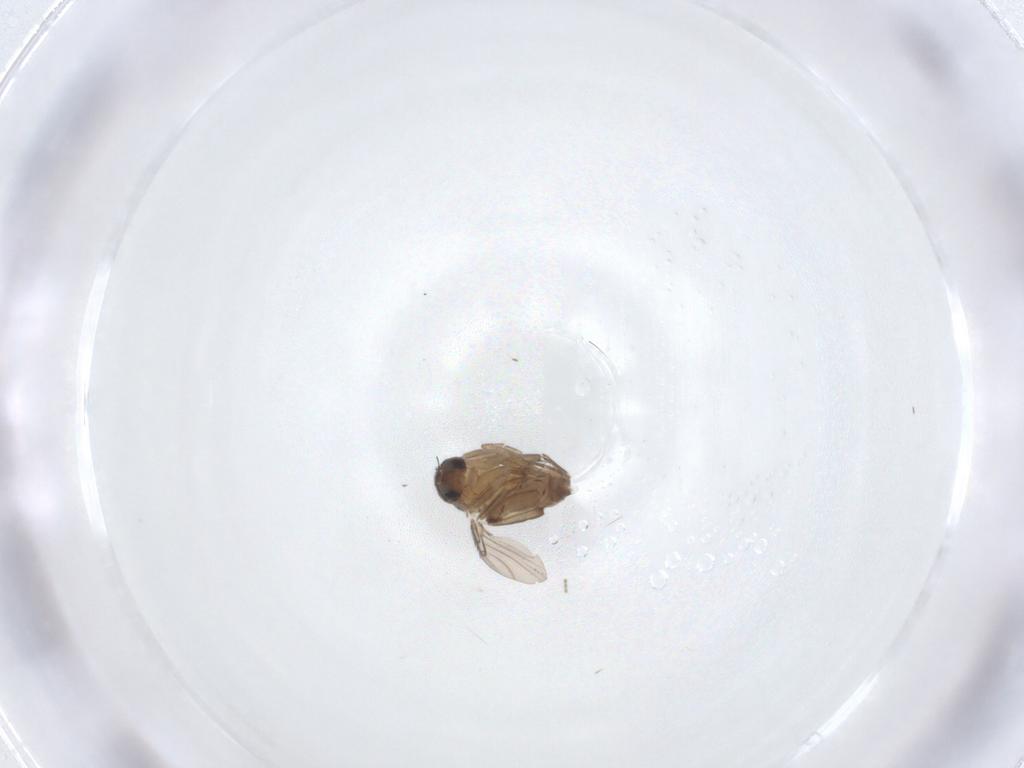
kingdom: Animalia
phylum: Arthropoda
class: Insecta
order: Diptera
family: Phoridae
